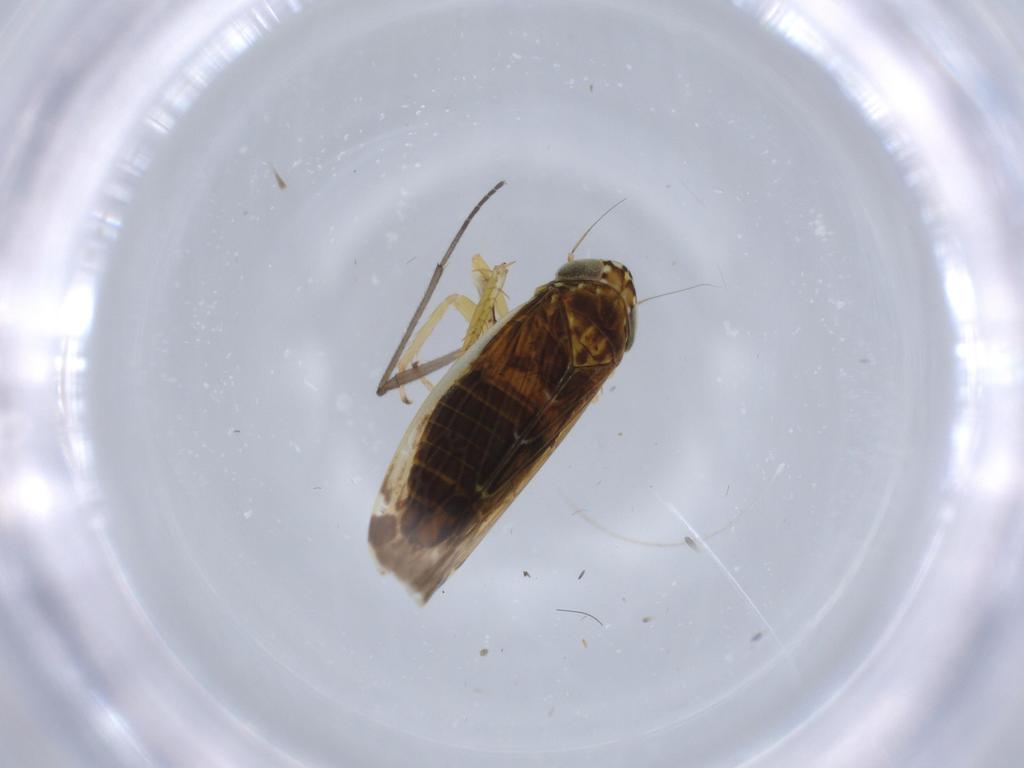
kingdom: Animalia
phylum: Arthropoda
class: Insecta
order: Hemiptera
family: Cicadellidae
